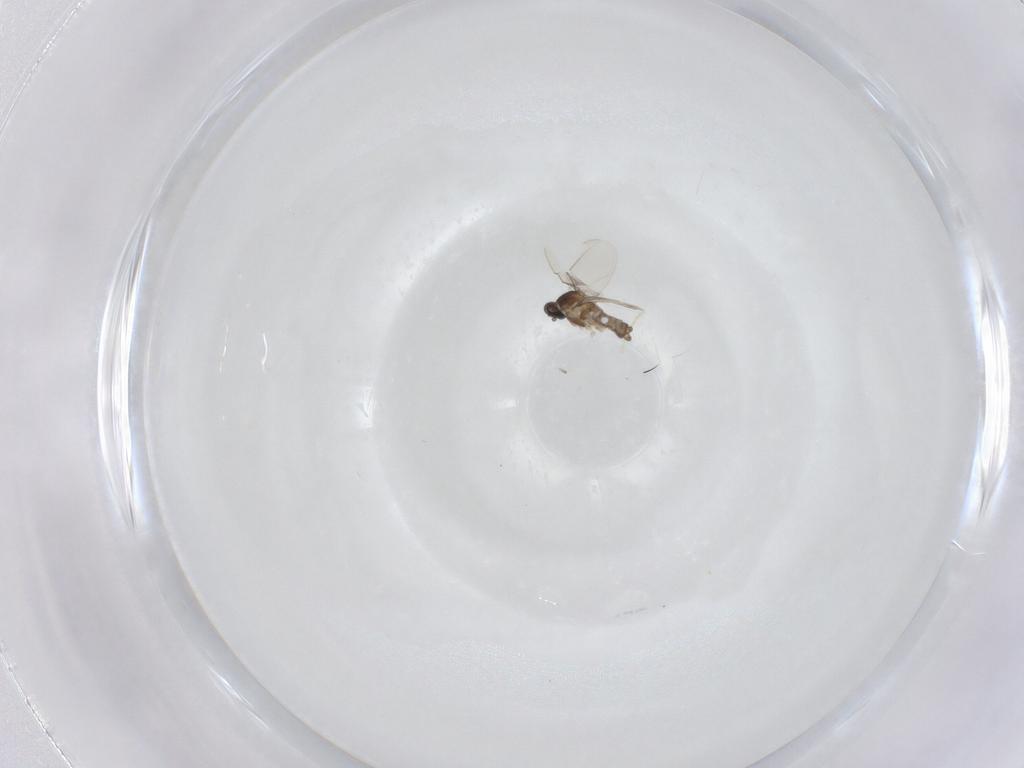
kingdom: Animalia
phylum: Arthropoda
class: Insecta
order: Diptera
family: Cecidomyiidae
